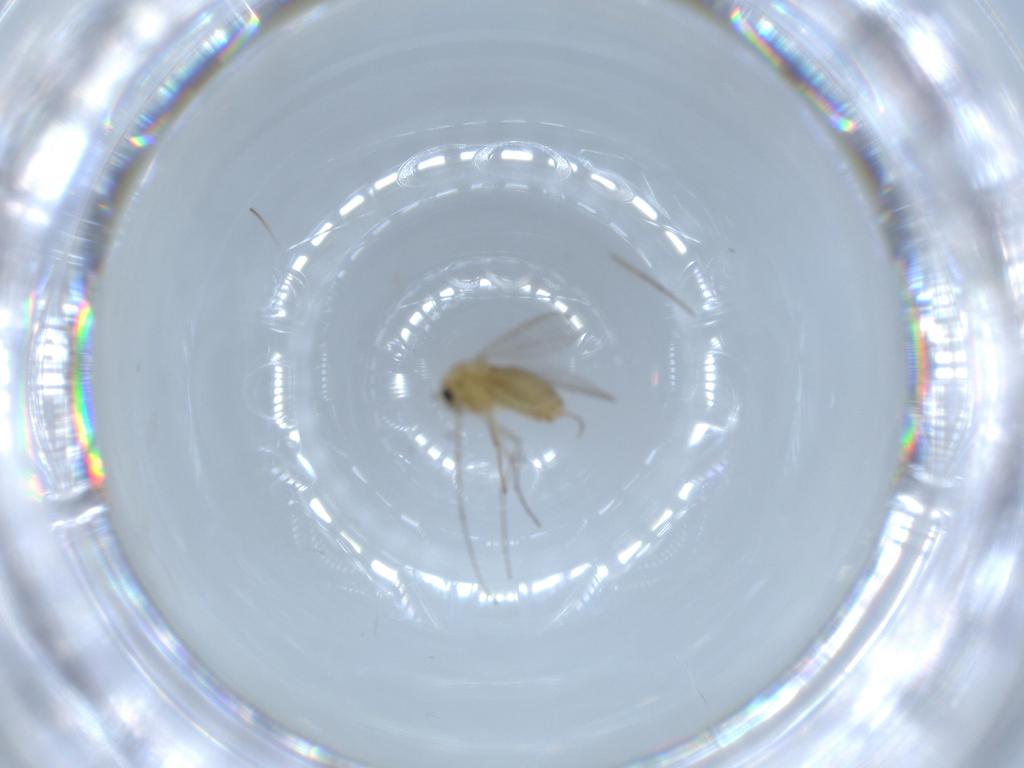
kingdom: Animalia
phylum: Arthropoda
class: Insecta
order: Diptera
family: Chironomidae
